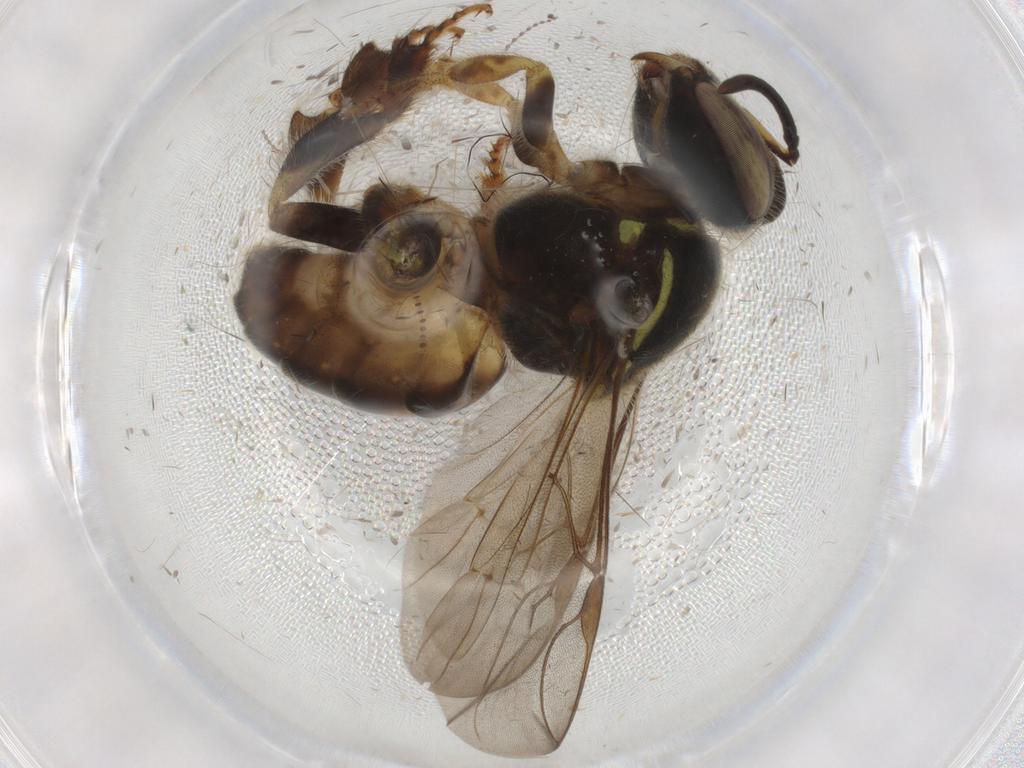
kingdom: Animalia
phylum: Arthropoda
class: Insecta
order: Hymenoptera
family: Apidae
